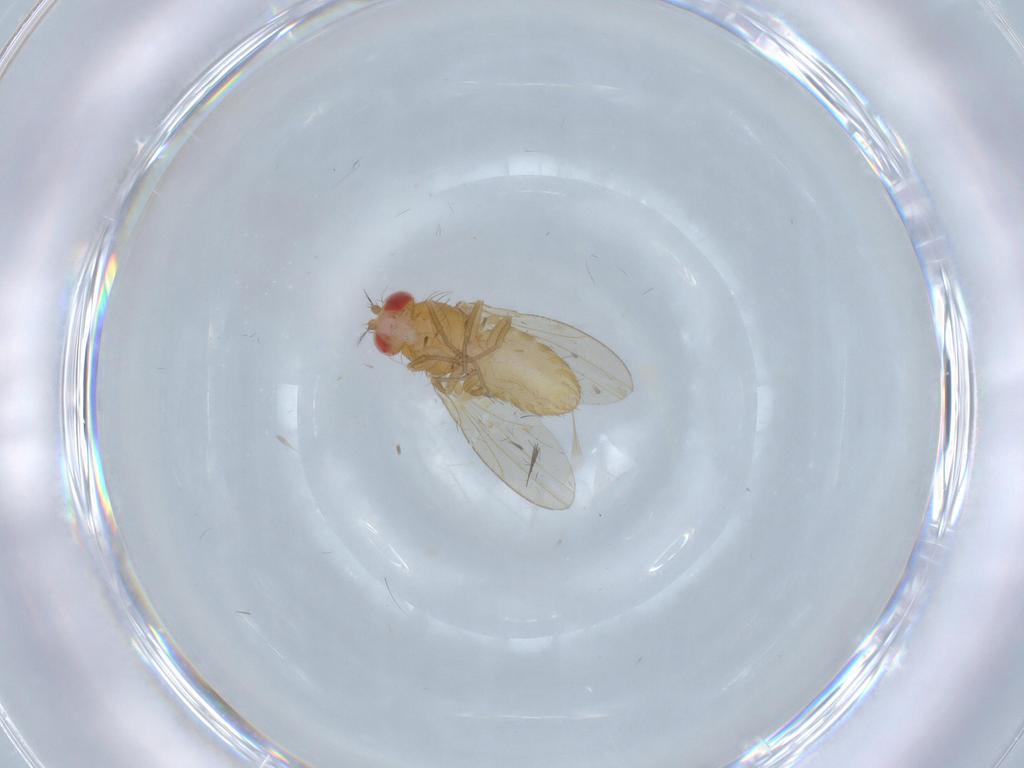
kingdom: Animalia
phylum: Arthropoda
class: Insecta
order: Diptera
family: Drosophilidae
